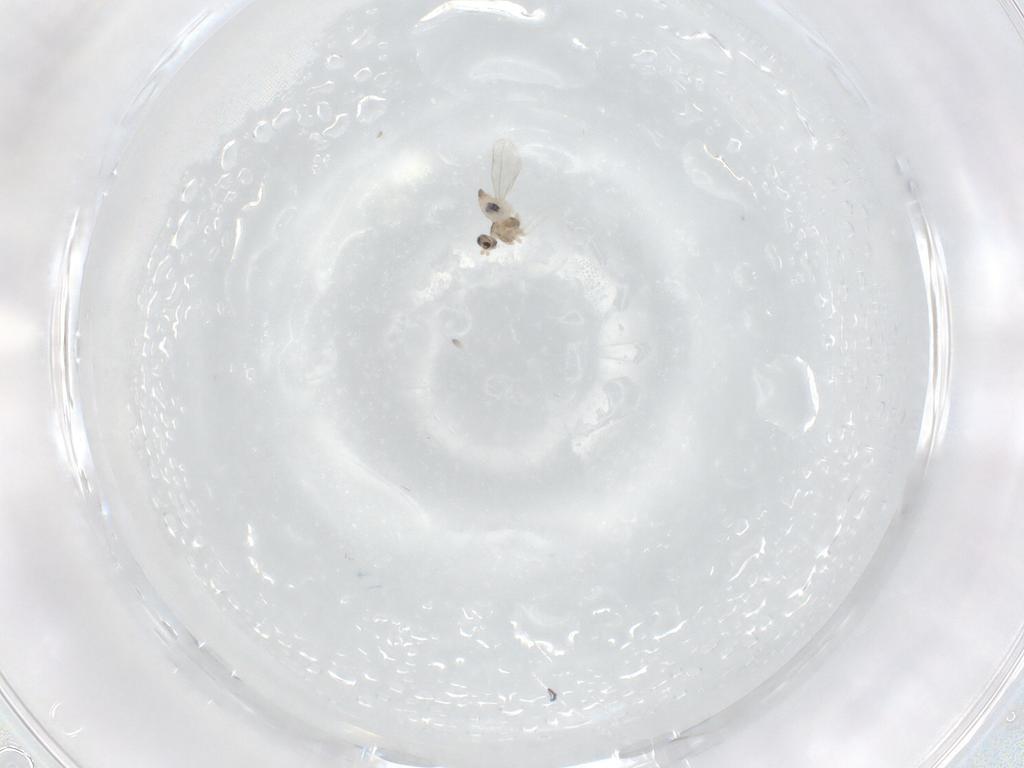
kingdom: Animalia
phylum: Arthropoda
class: Insecta
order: Diptera
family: Cecidomyiidae
